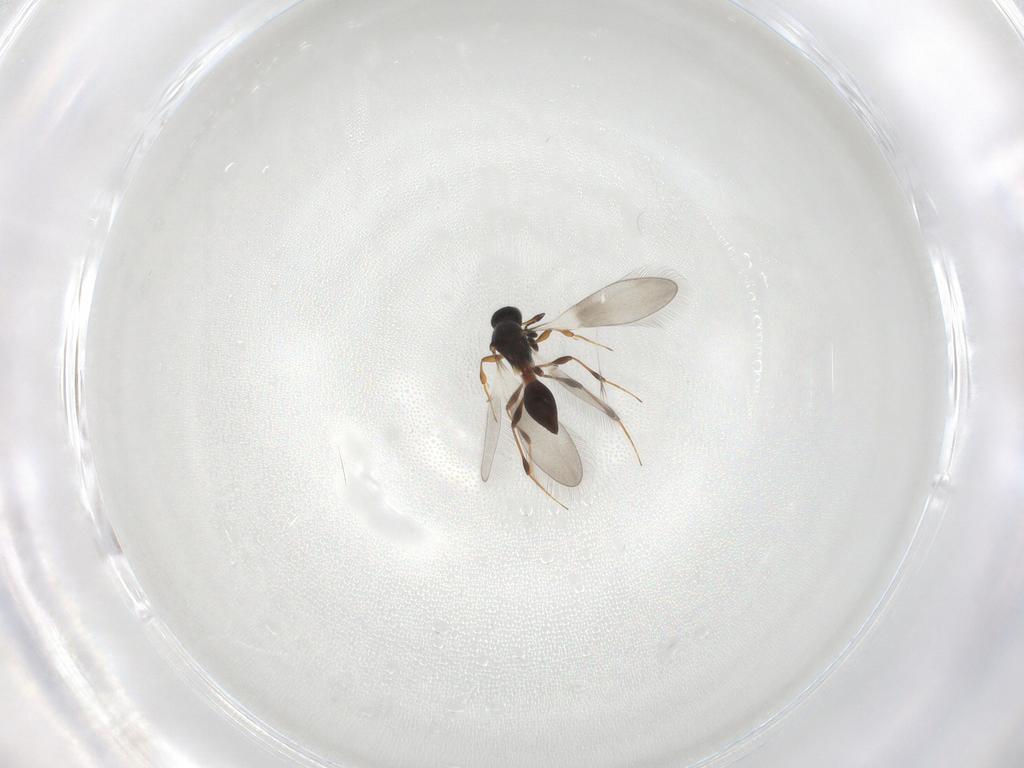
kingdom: Animalia
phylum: Arthropoda
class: Insecta
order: Hymenoptera
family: Platygastridae
